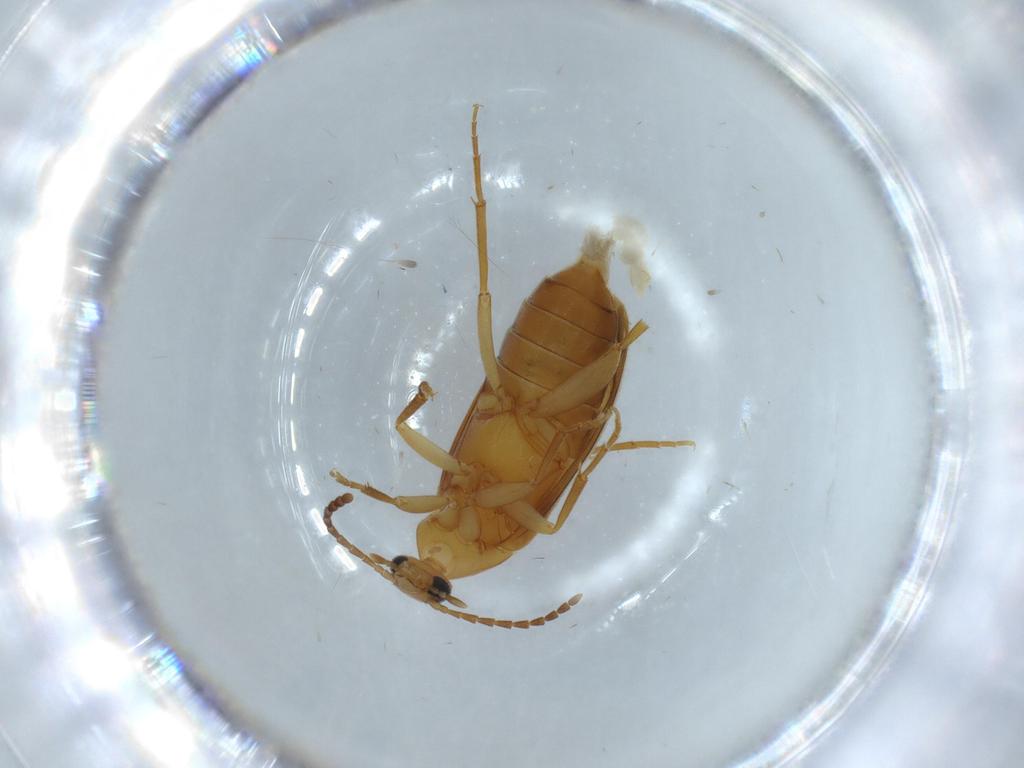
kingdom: Animalia
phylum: Arthropoda
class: Insecta
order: Coleoptera
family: Scraptiidae
